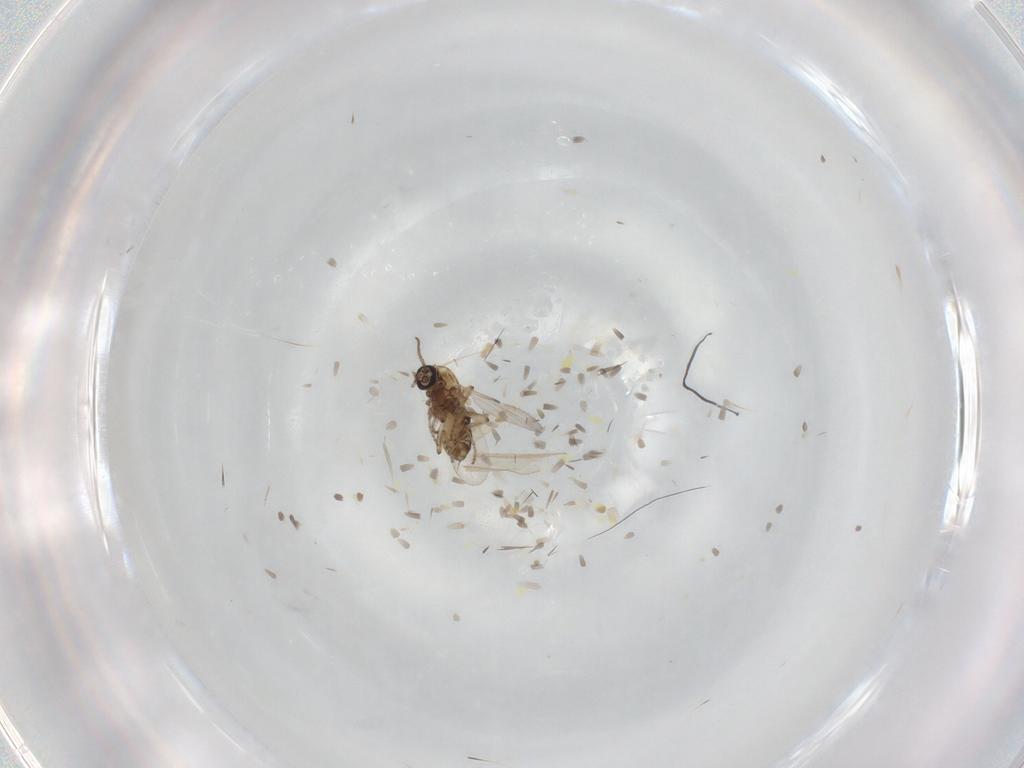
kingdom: Animalia
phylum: Arthropoda
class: Insecta
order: Diptera
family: Ceratopogonidae
